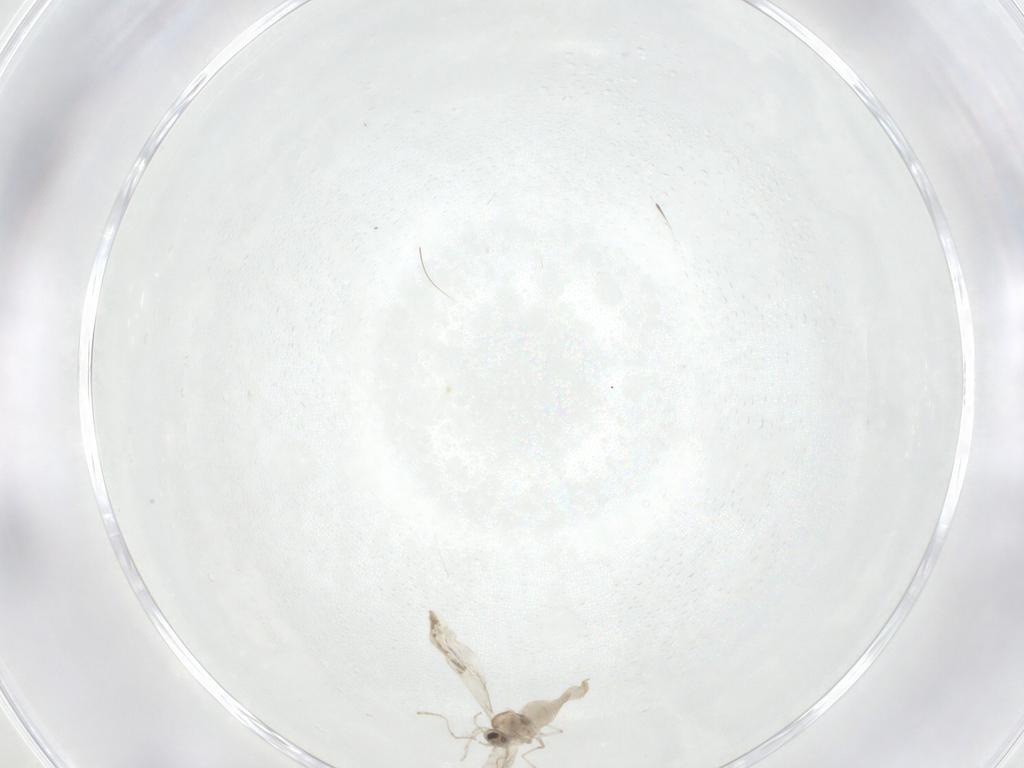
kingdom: Animalia
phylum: Arthropoda
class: Insecta
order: Diptera
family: Cecidomyiidae
